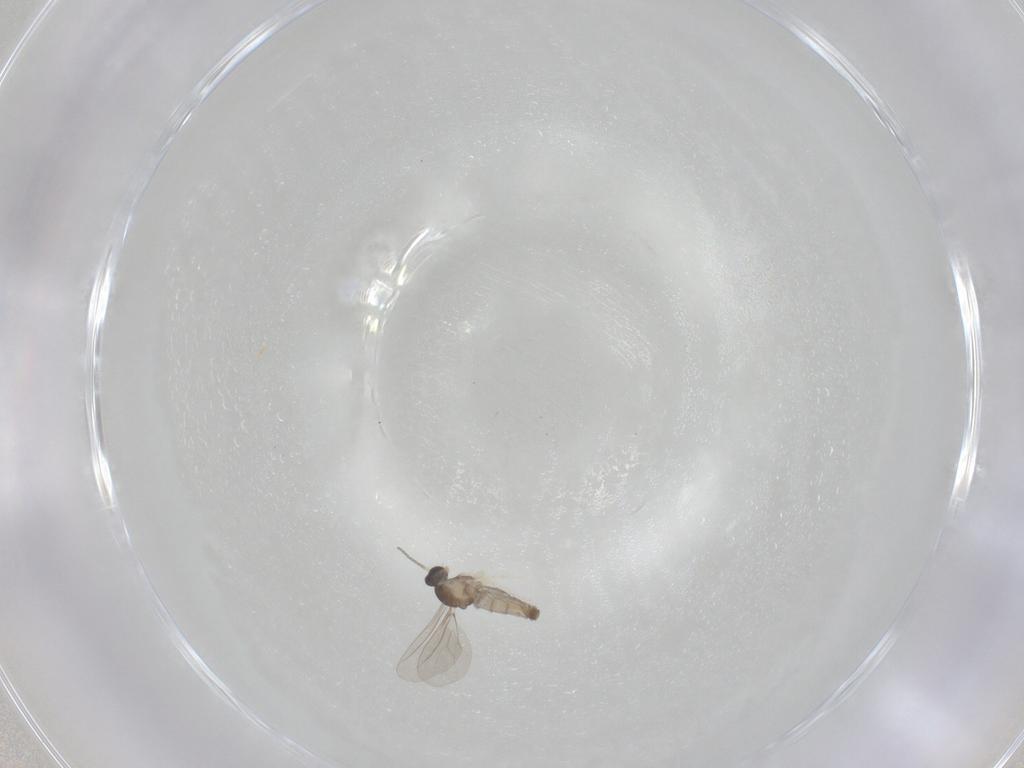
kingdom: Animalia
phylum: Arthropoda
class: Insecta
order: Diptera
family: Cecidomyiidae
